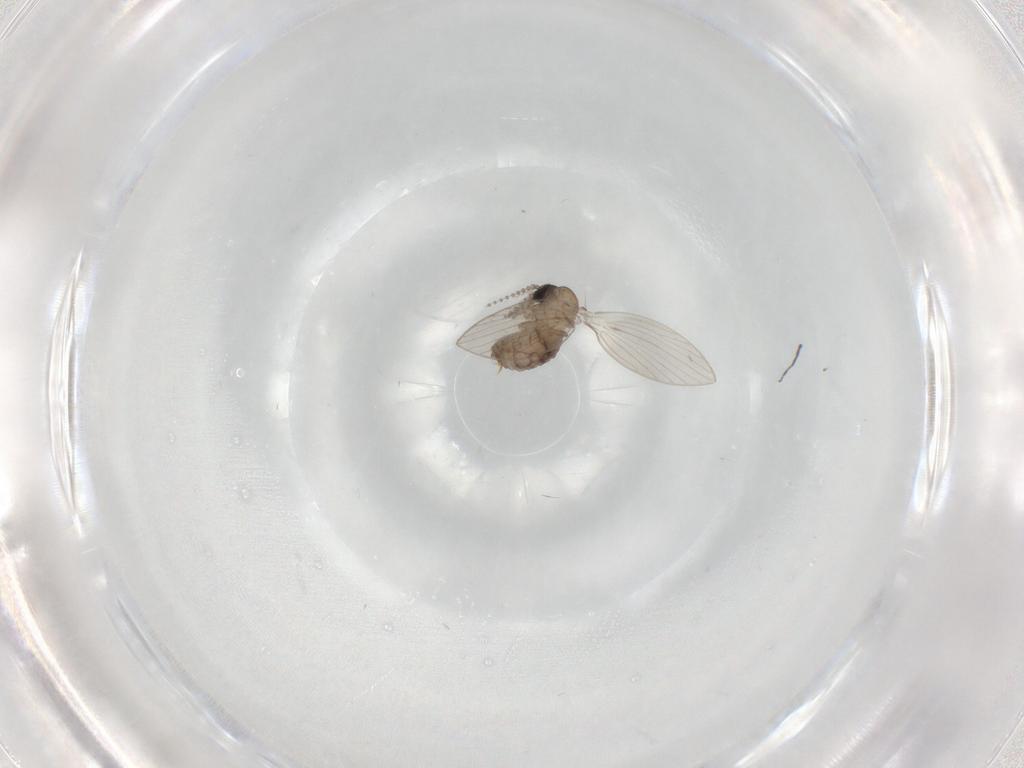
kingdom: Animalia
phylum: Arthropoda
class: Insecta
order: Diptera
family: Psychodidae
